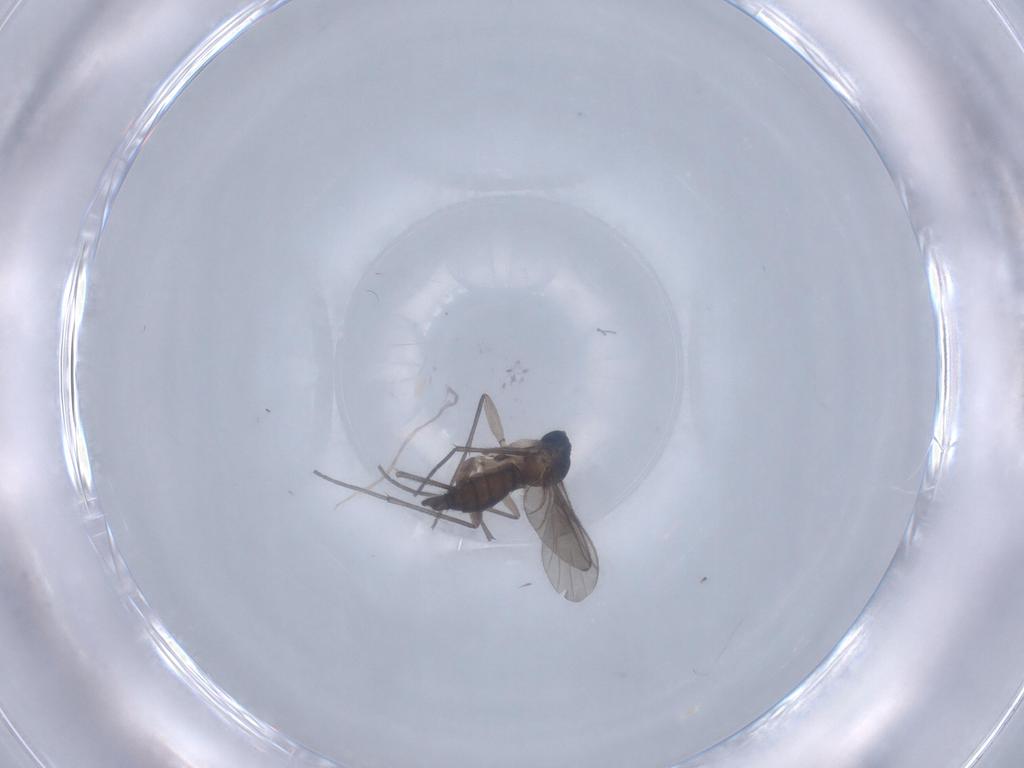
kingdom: Animalia
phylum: Arthropoda
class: Insecta
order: Diptera
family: Sciaridae
